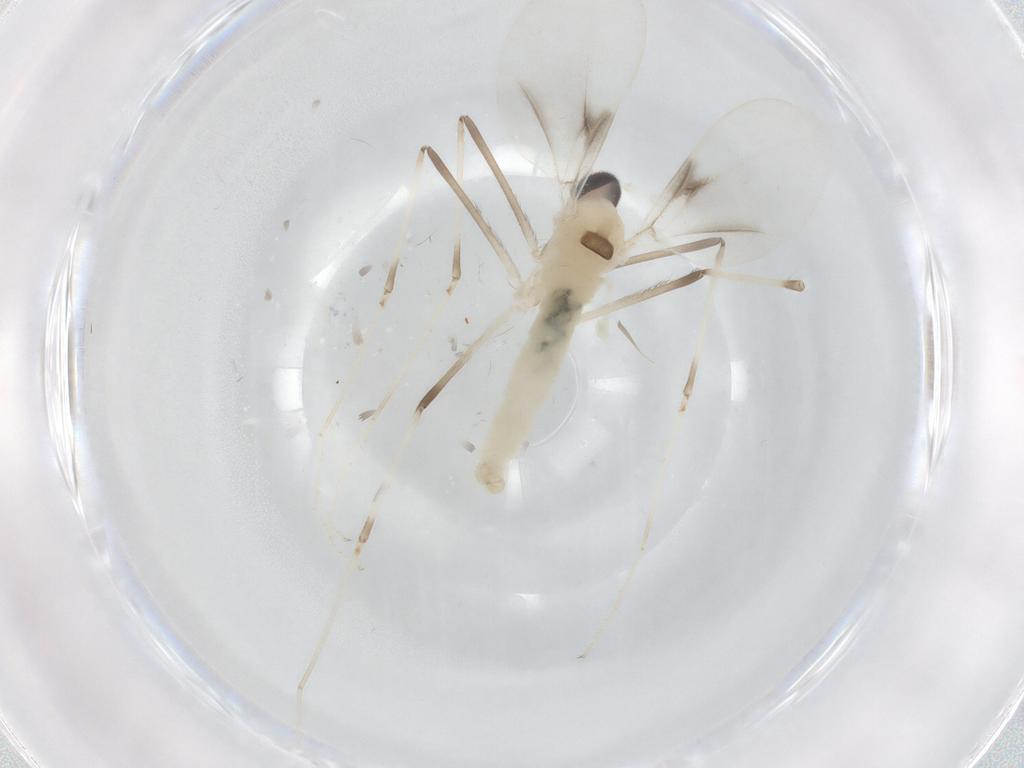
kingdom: Animalia
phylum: Arthropoda
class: Insecta
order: Diptera
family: Cecidomyiidae
